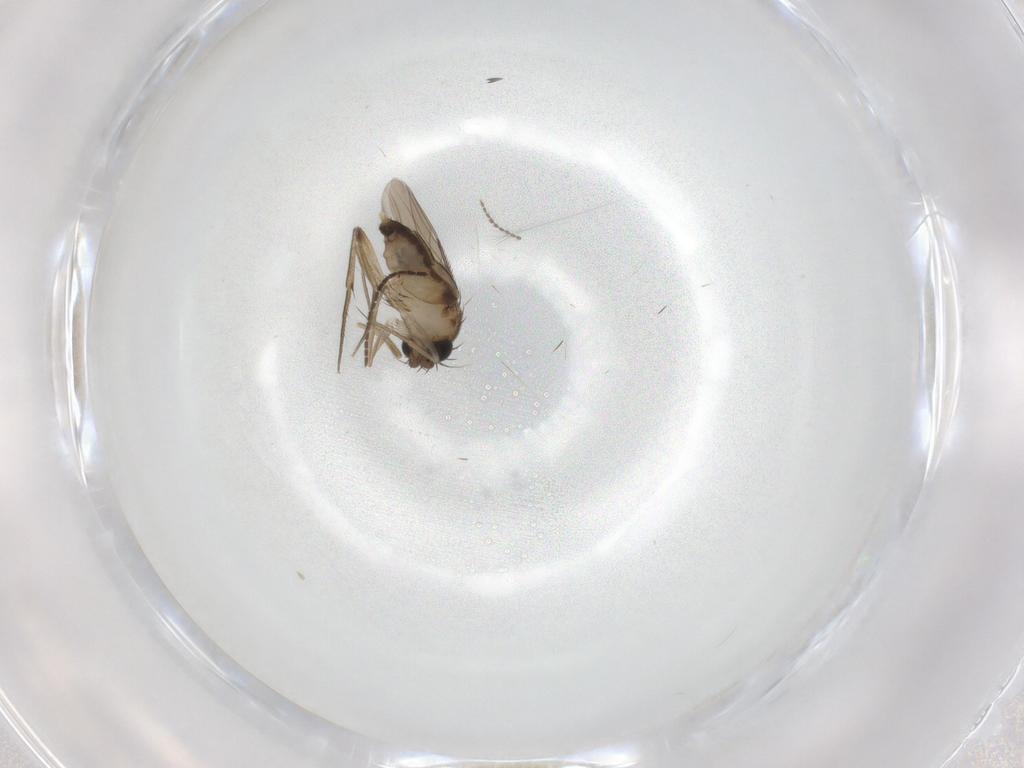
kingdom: Animalia
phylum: Arthropoda
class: Insecta
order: Diptera
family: Phoridae
